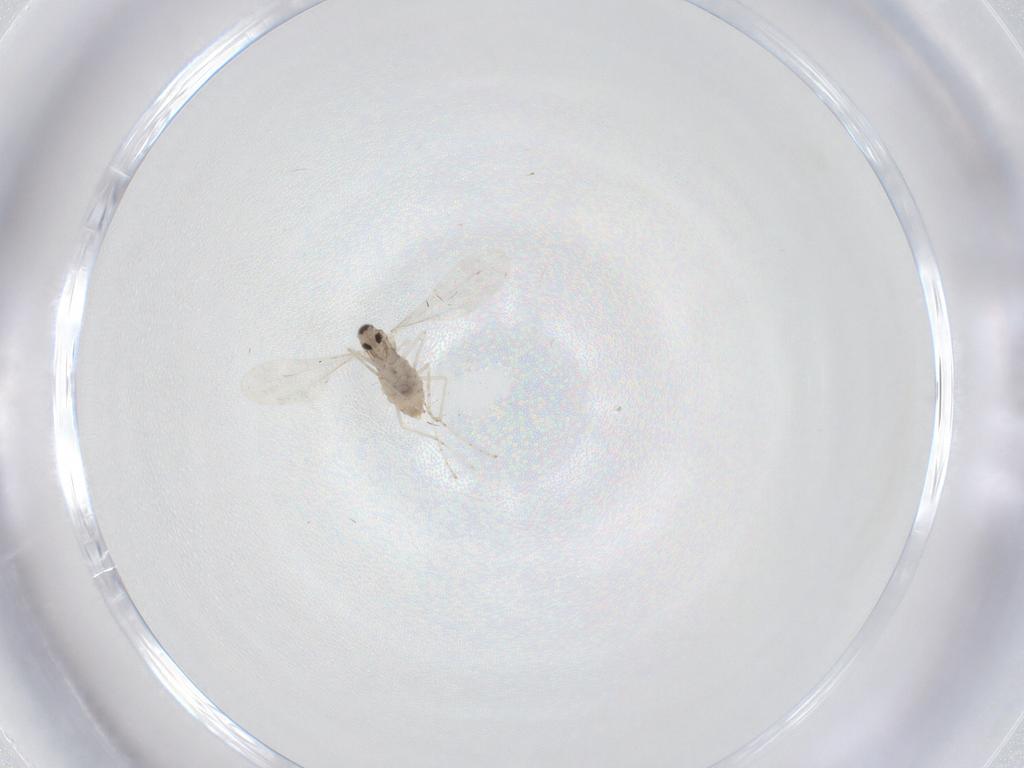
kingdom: Animalia
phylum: Arthropoda
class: Insecta
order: Diptera
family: Cecidomyiidae
